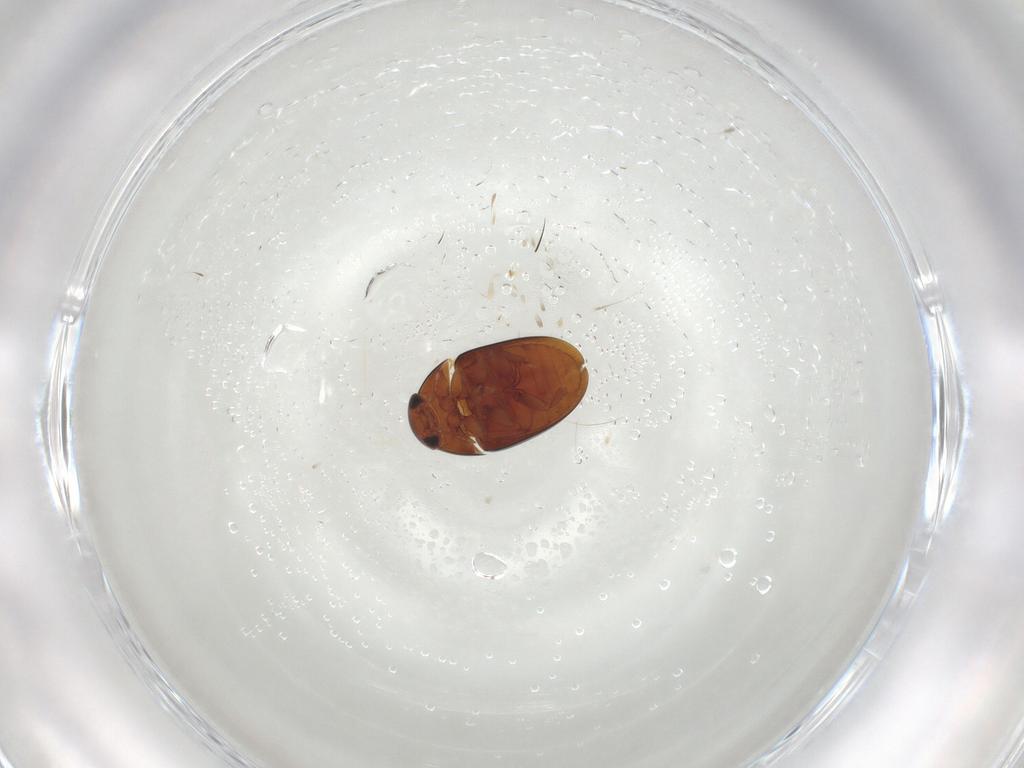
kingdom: Animalia
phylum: Arthropoda
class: Insecta
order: Coleoptera
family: Phalacridae
